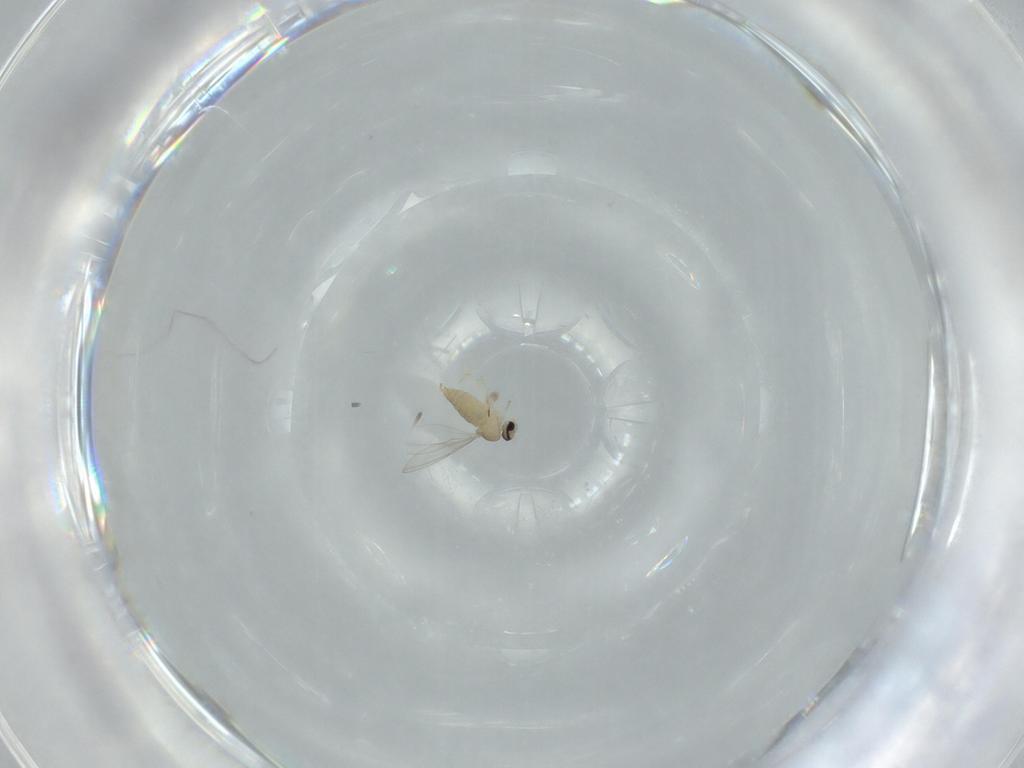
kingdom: Animalia
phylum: Arthropoda
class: Insecta
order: Diptera
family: Cecidomyiidae
